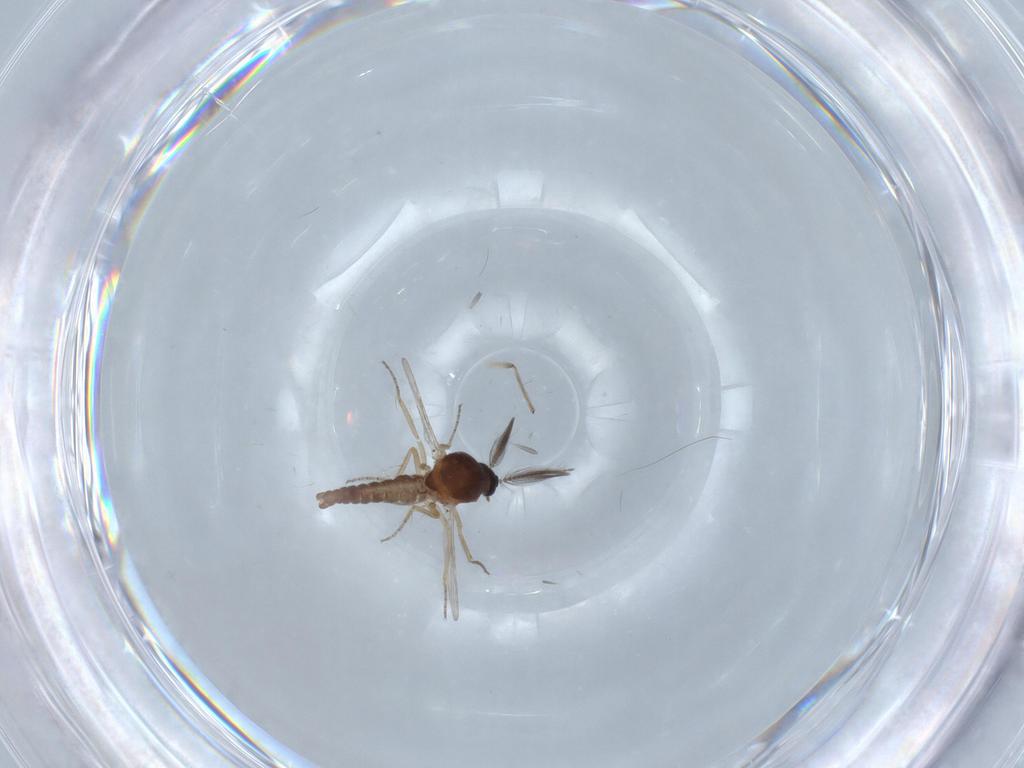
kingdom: Animalia
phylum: Arthropoda
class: Insecta
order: Diptera
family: Ceratopogonidae
